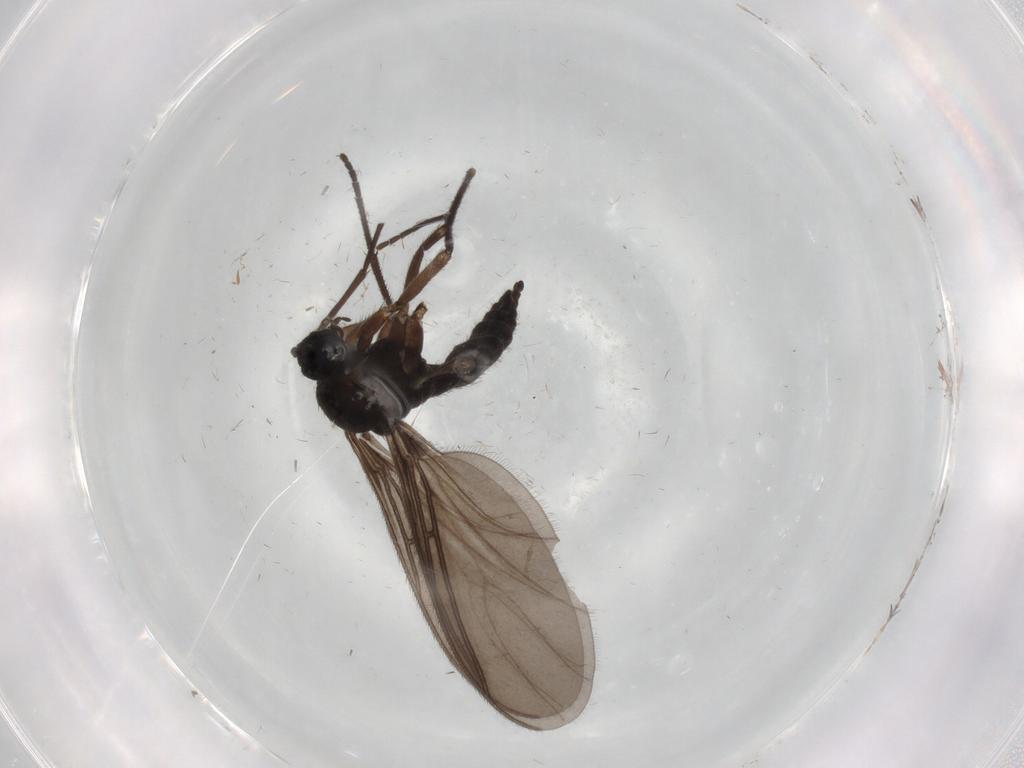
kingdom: Animalia
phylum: Arthropoda
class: Insecta
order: Diptera
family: Sciaridae
